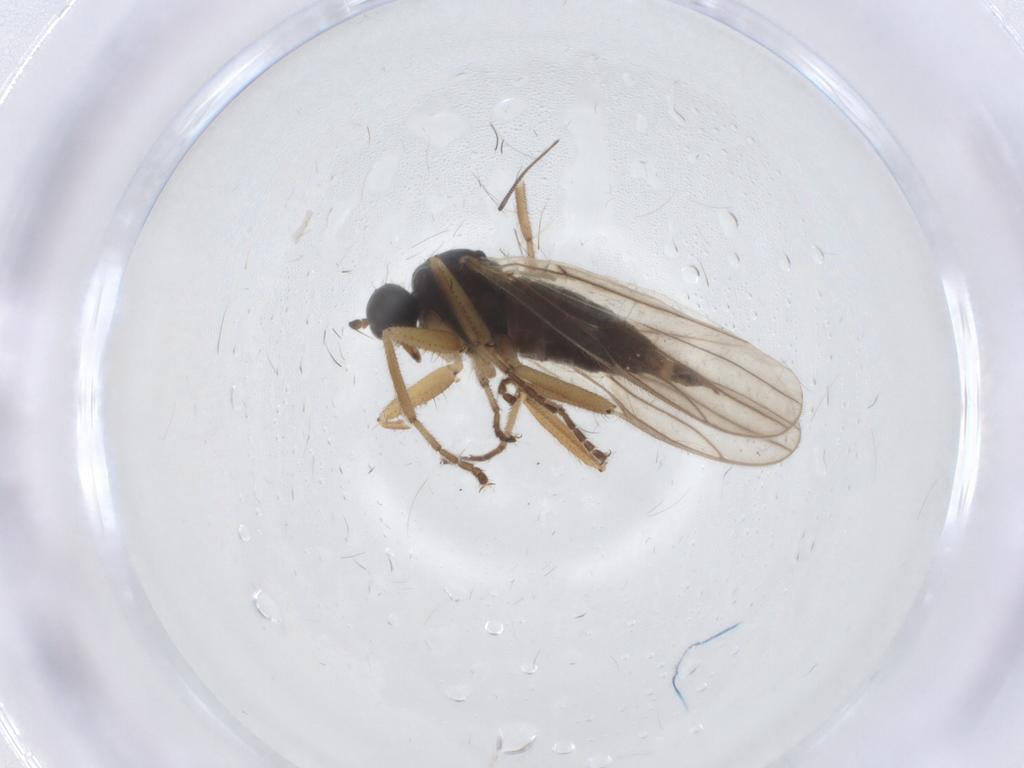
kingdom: Animalia
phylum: Arthropoda
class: Insecta
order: Diptera
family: Hybotidae
